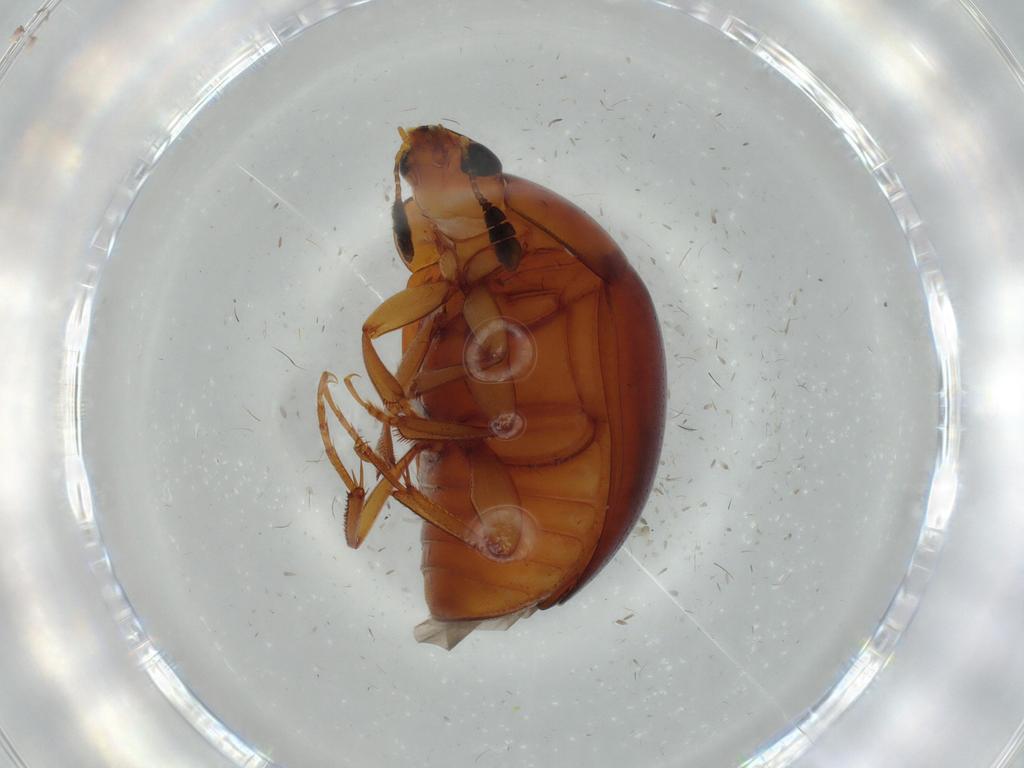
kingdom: Animalia
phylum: Arthropoda
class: Insecta
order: Coleoptera
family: Nitidulidae
